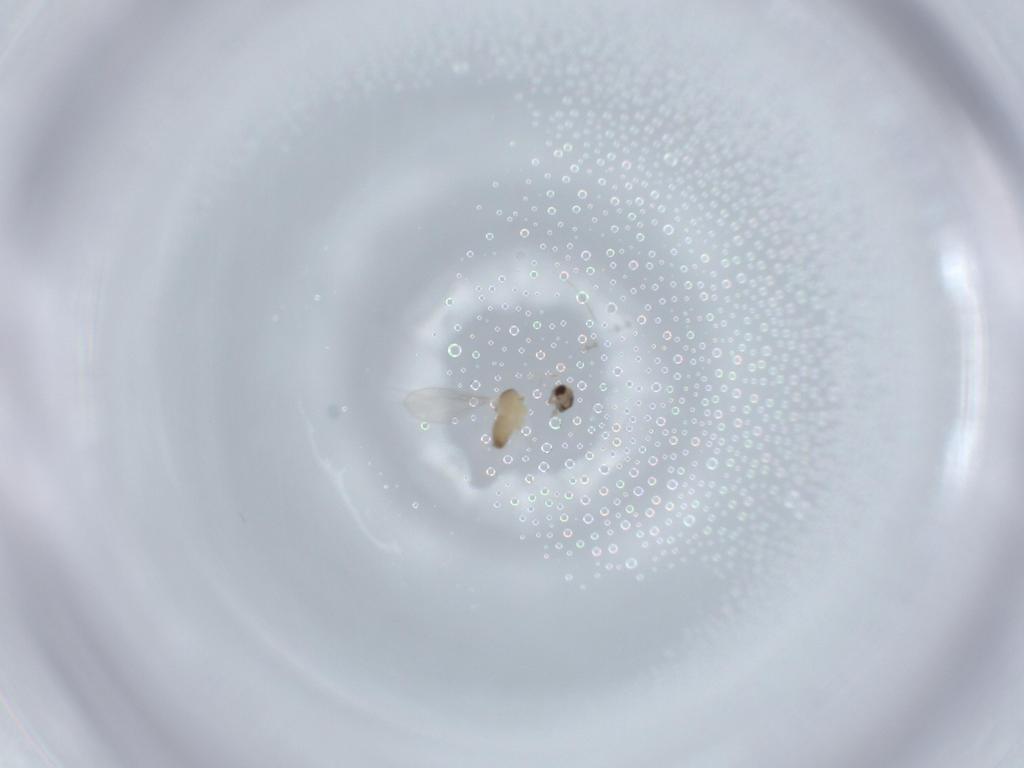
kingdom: Animalia
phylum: Arthropoda
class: Insecta
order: Diptera
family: Cecidomyiidae
